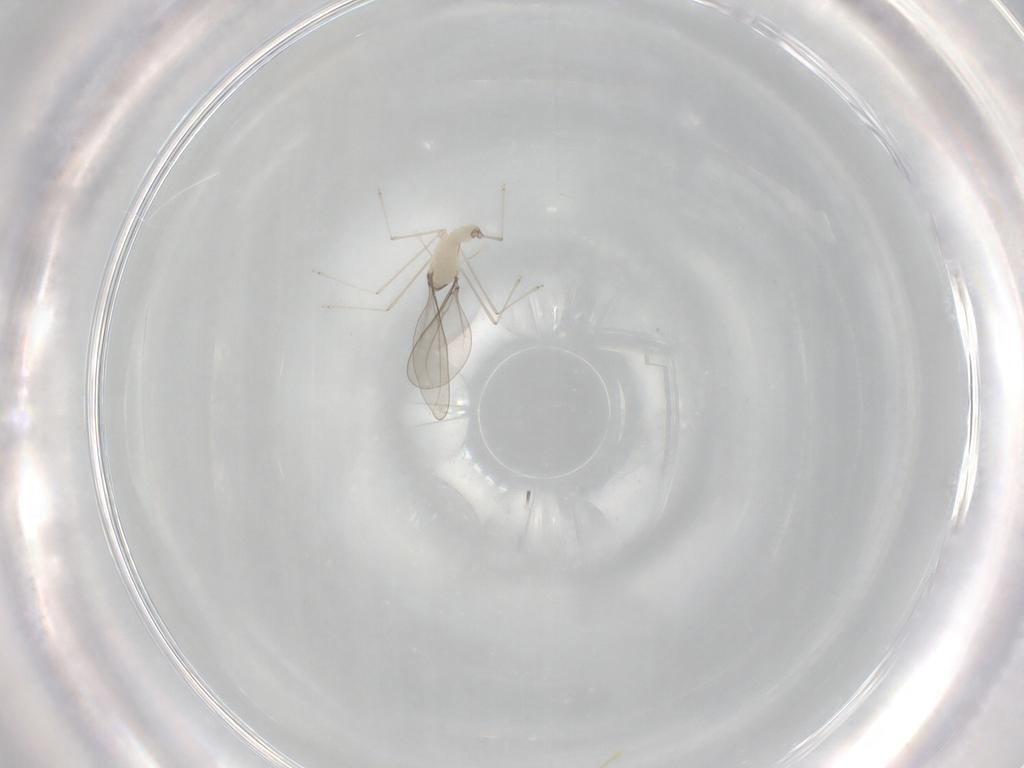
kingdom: Animalia
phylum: Arthropoda
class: Insecta
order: Diptera
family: Cecidomyiidae
